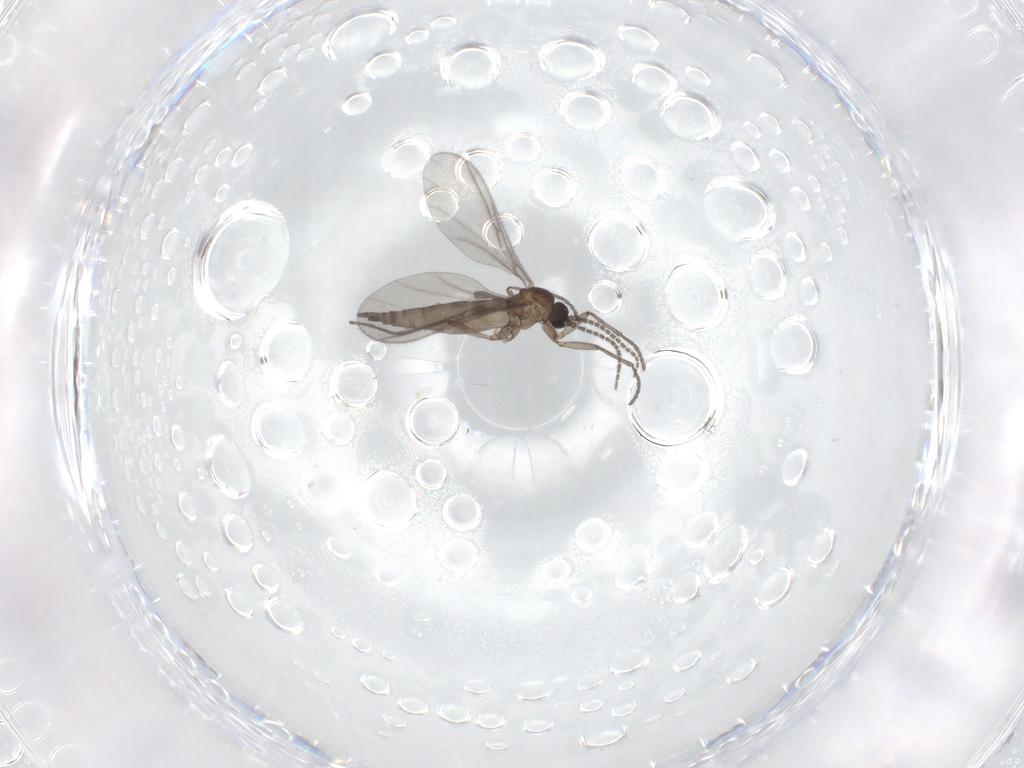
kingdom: Animalia
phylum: Arthropoda
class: Insecta
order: Diptera
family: Sciaridae
